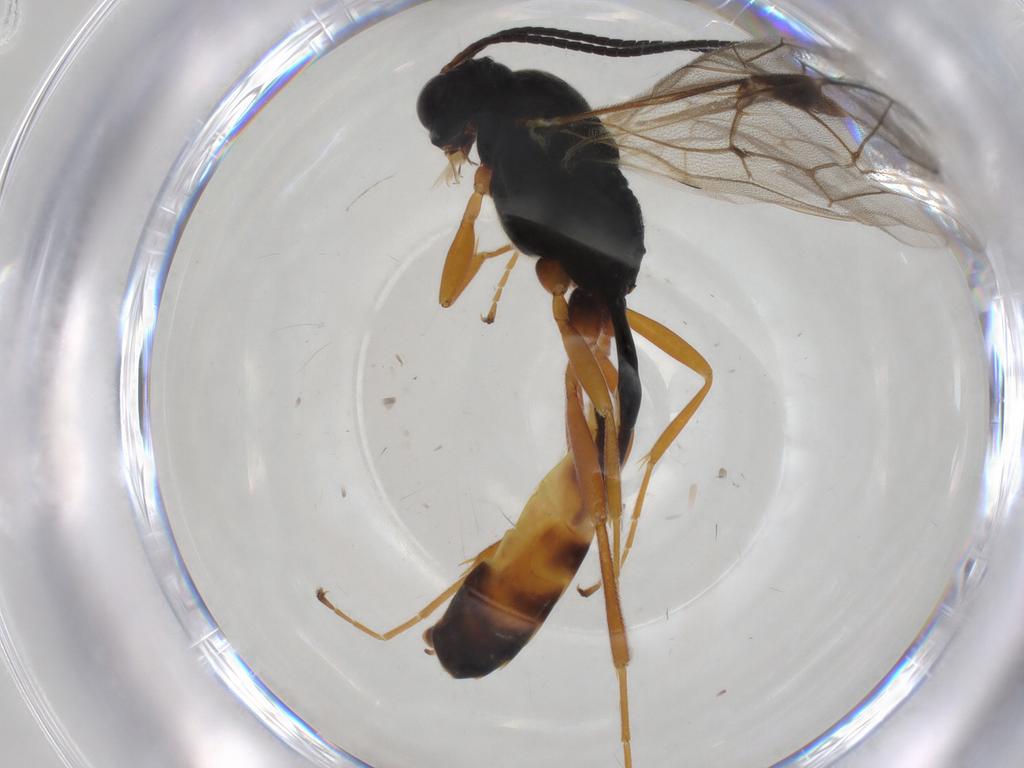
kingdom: Animalia
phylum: Arthropoda
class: Insecta
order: Hymenoptera
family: Ichneumonidae
